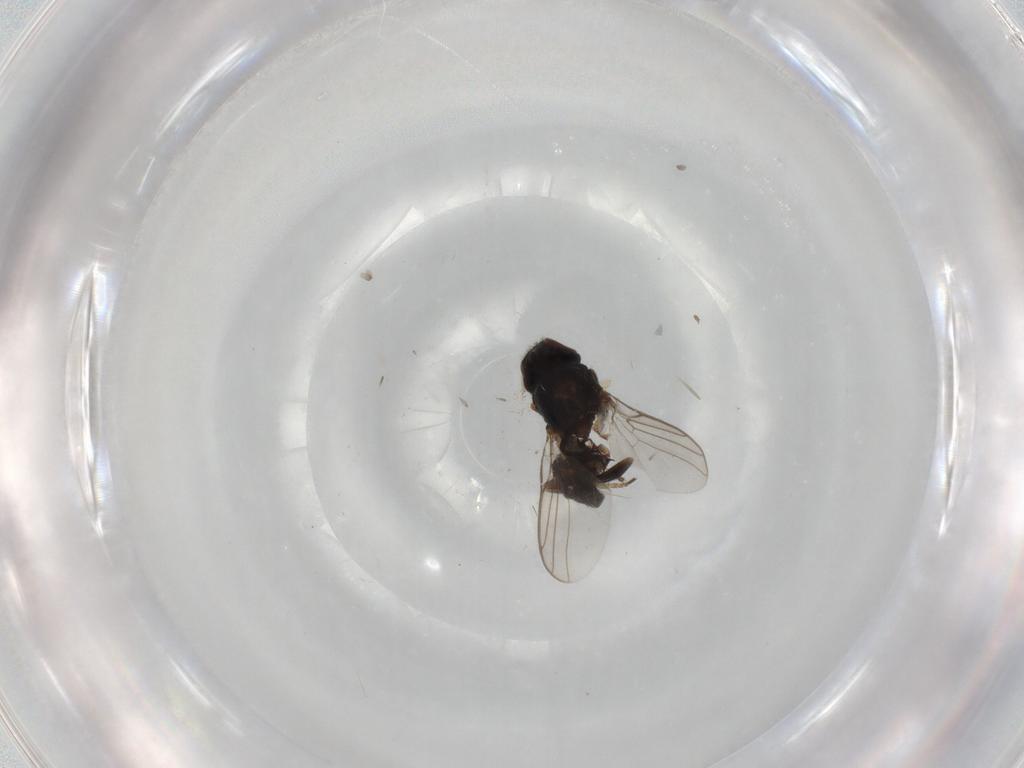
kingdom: Animalia
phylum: Arthropoda
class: Insecta
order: Diptera
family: Chloropidae
